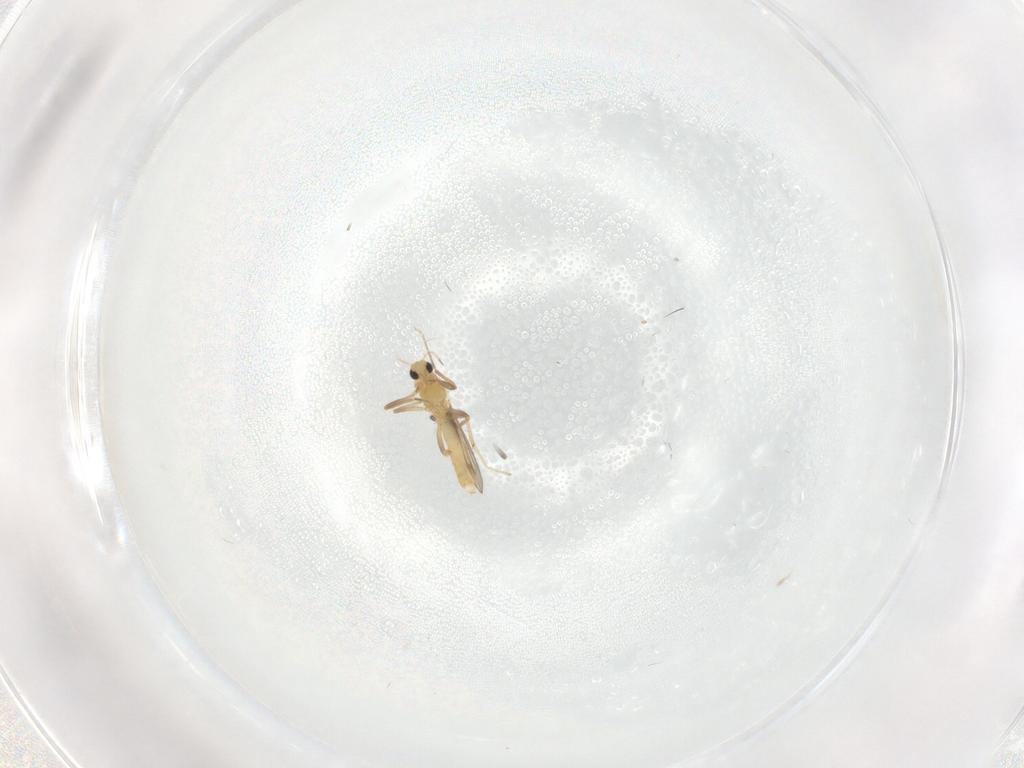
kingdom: Animalia
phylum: Arthropoda
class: Insecta
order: Diptera
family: Chironomidae
